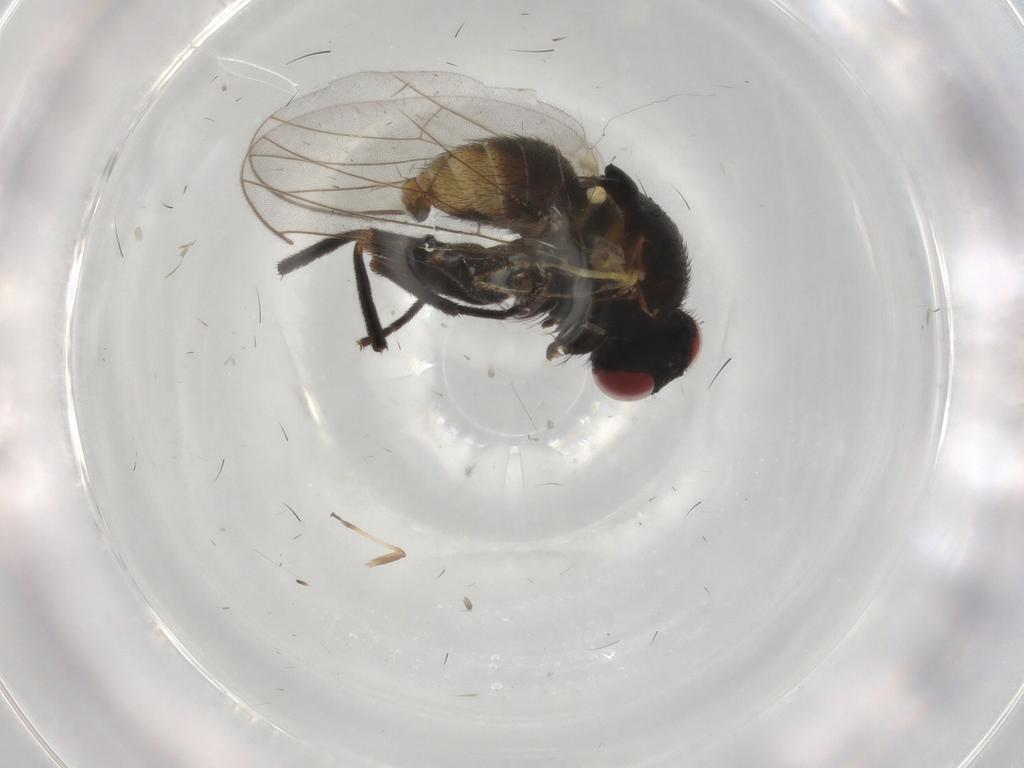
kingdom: Animalia
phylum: Arthropoda
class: Insecta
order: Diptera
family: Agromyzidae
